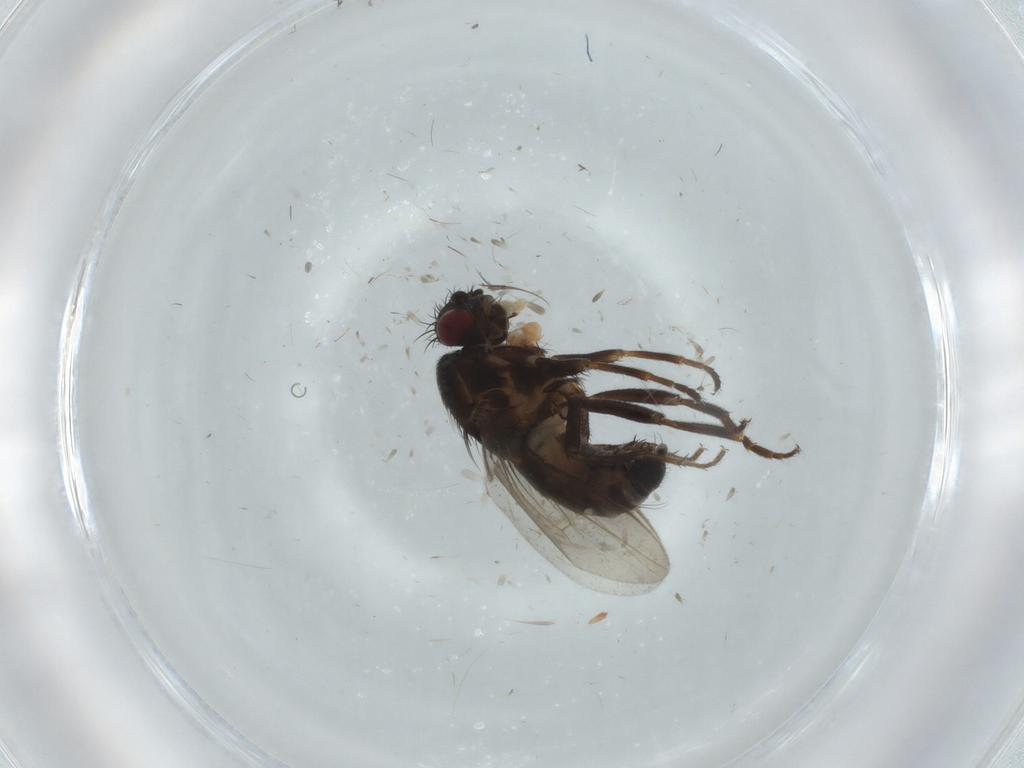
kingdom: Animalia
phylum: Arthropoda
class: Insecta
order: Diptera
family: Sphaeroceridae
